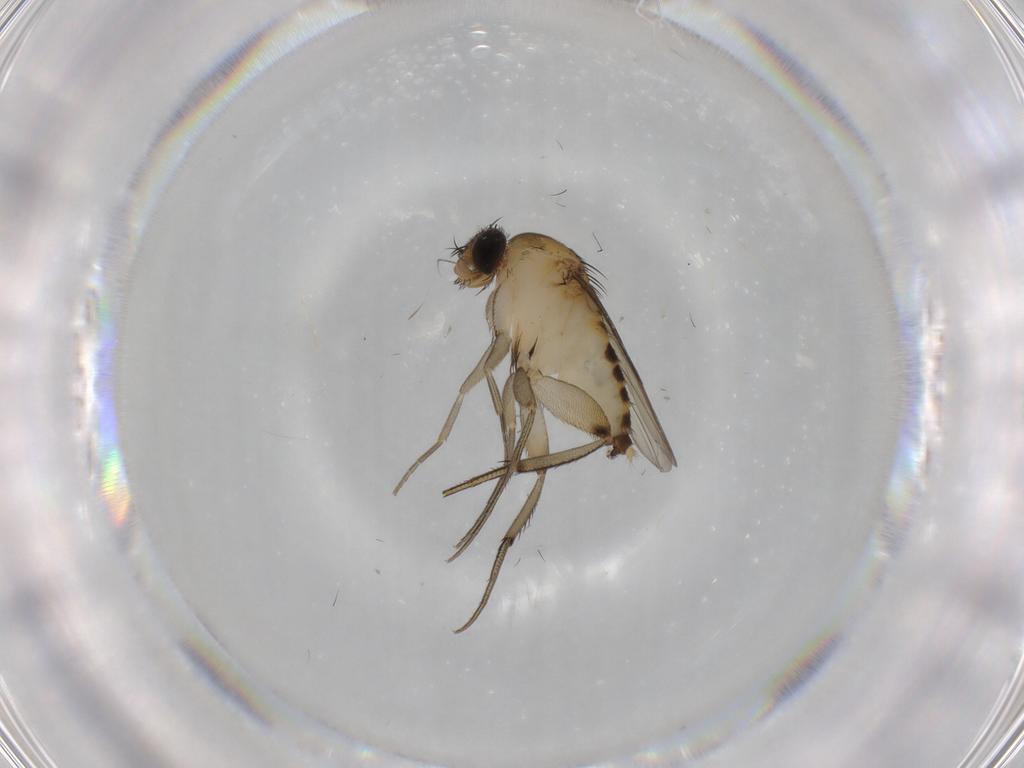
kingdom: Animalia
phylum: Arthropoda
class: Insecta
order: Diptera
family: Phoridae
